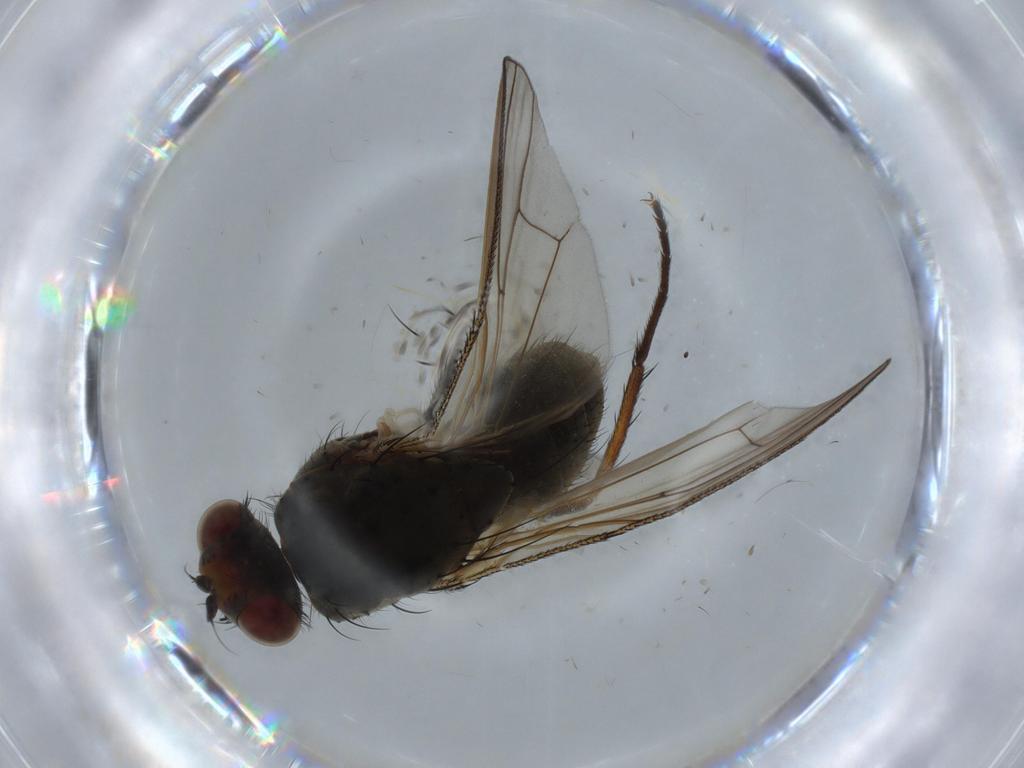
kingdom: Animalia
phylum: Arthropoda
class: Insecta
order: Diptera
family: Anthomyiidae
